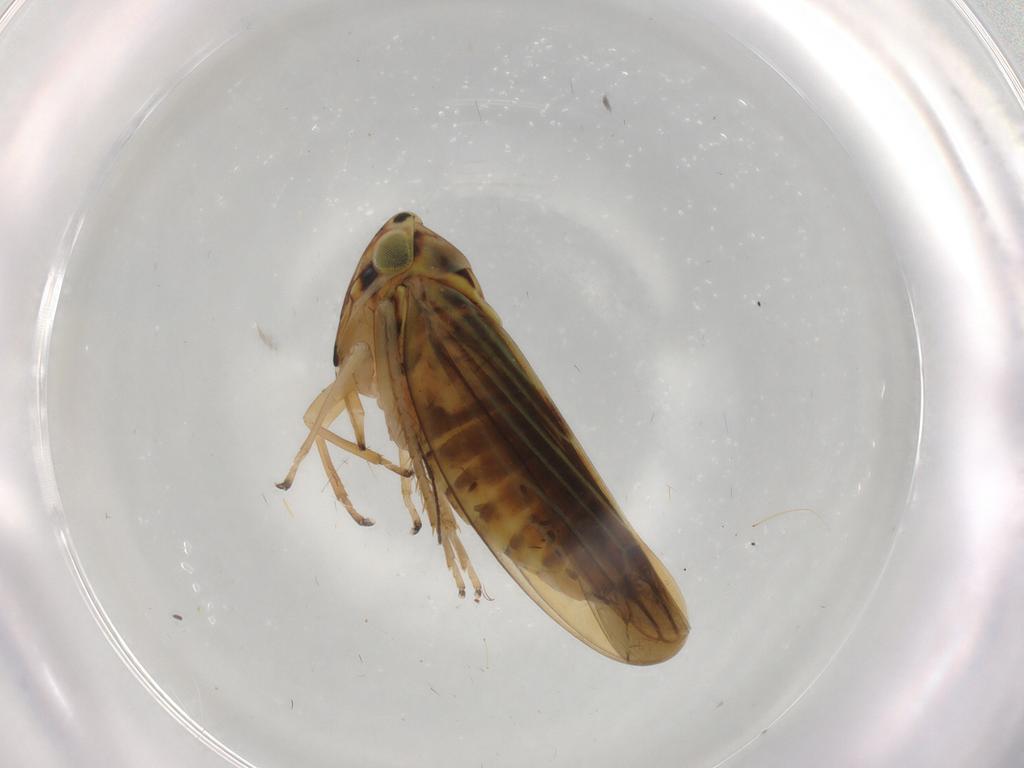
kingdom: Animalia
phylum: Arthropoda
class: Insecta
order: Hemiptera
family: Cicadellidae
